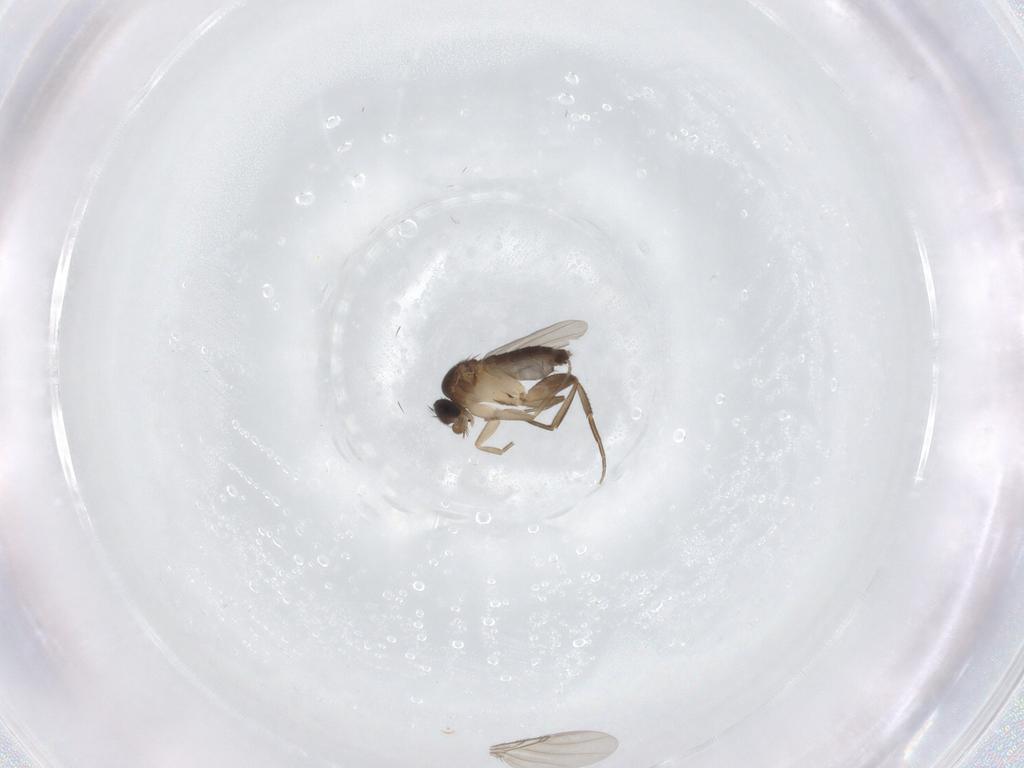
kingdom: Animalia
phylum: Arthropoda
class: Insecta
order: Diptera
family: Phoridae
